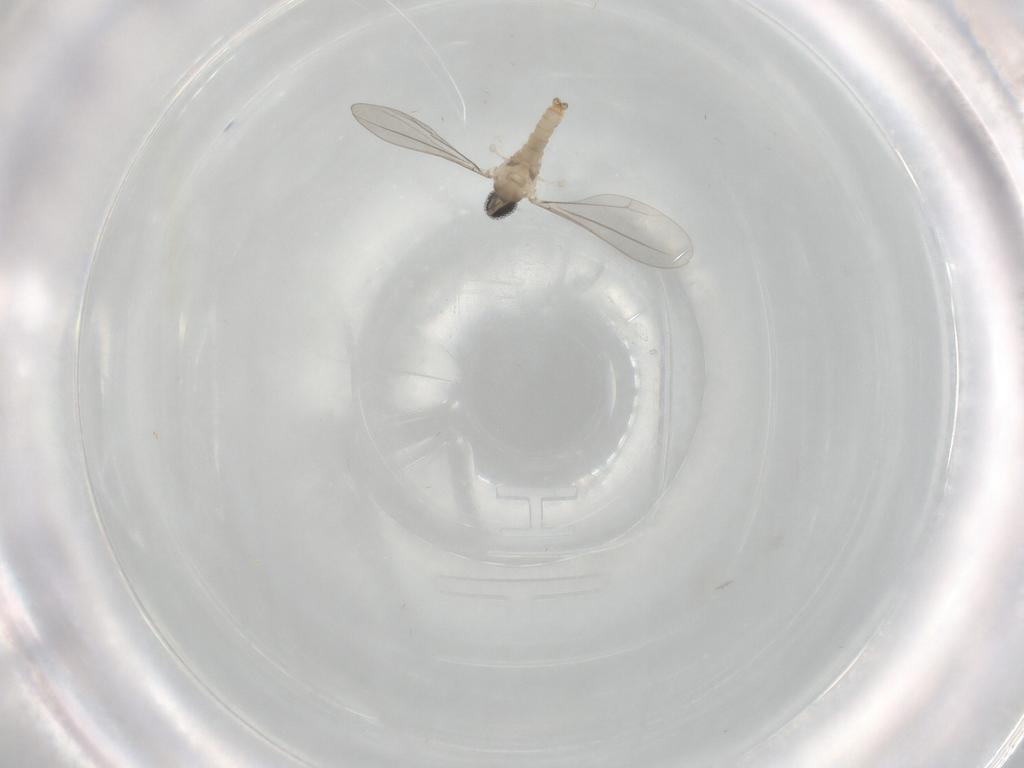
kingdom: Animalia
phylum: Arthropoda
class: Insecta
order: Diptera
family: Cecidomyiidae
